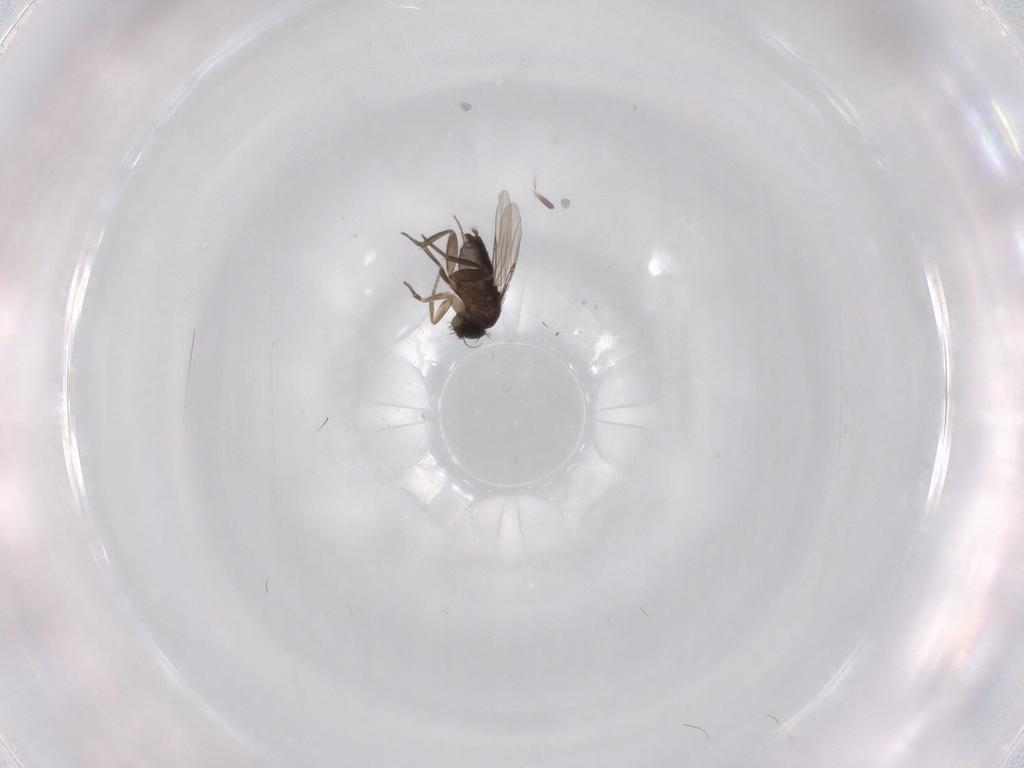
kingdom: Animalia
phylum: Arthropoda
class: Insecta
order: Diptera
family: Phoridae
